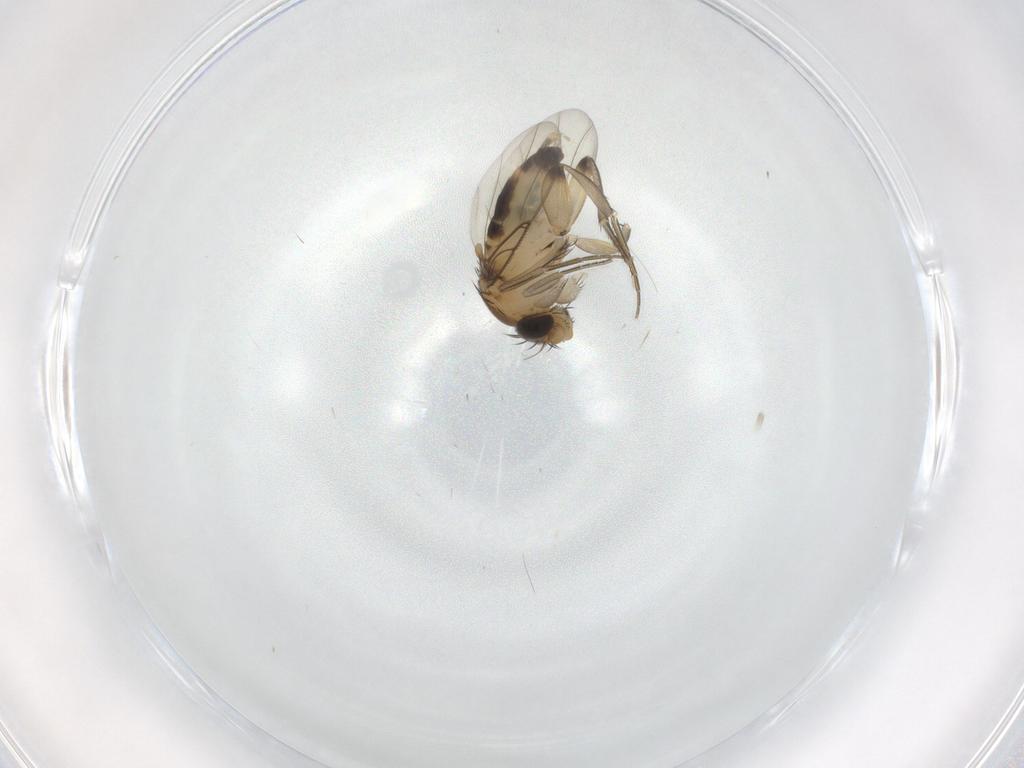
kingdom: Animalia
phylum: Arthropoda
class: Insecta
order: Diptera
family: Phoridae
